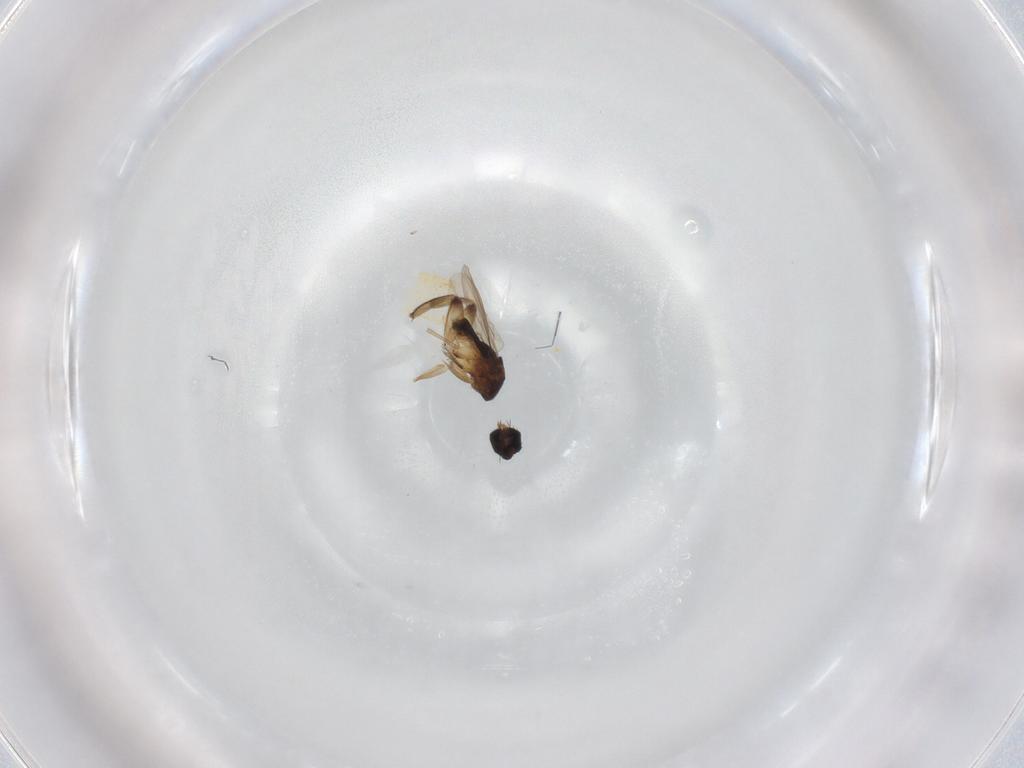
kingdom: Animalia
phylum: Arthropoda
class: Insecta
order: Diptera
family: Phoridae
